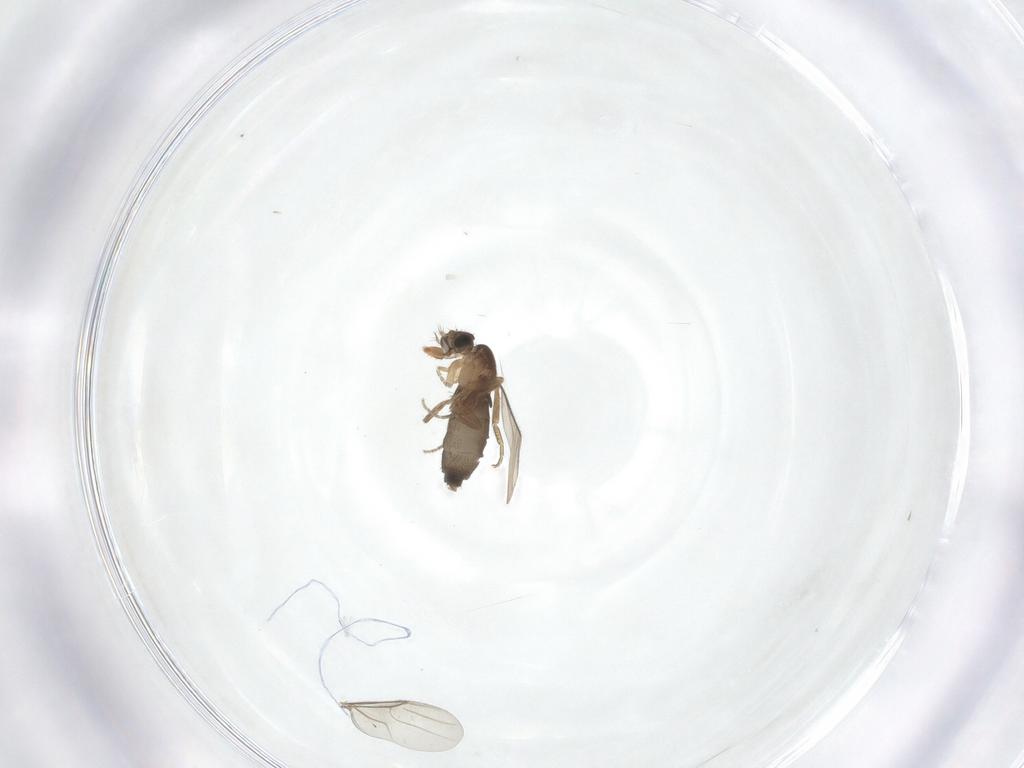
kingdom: Animalia
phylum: Arthropoda
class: Insecta
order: Diptera
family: Phoridae
